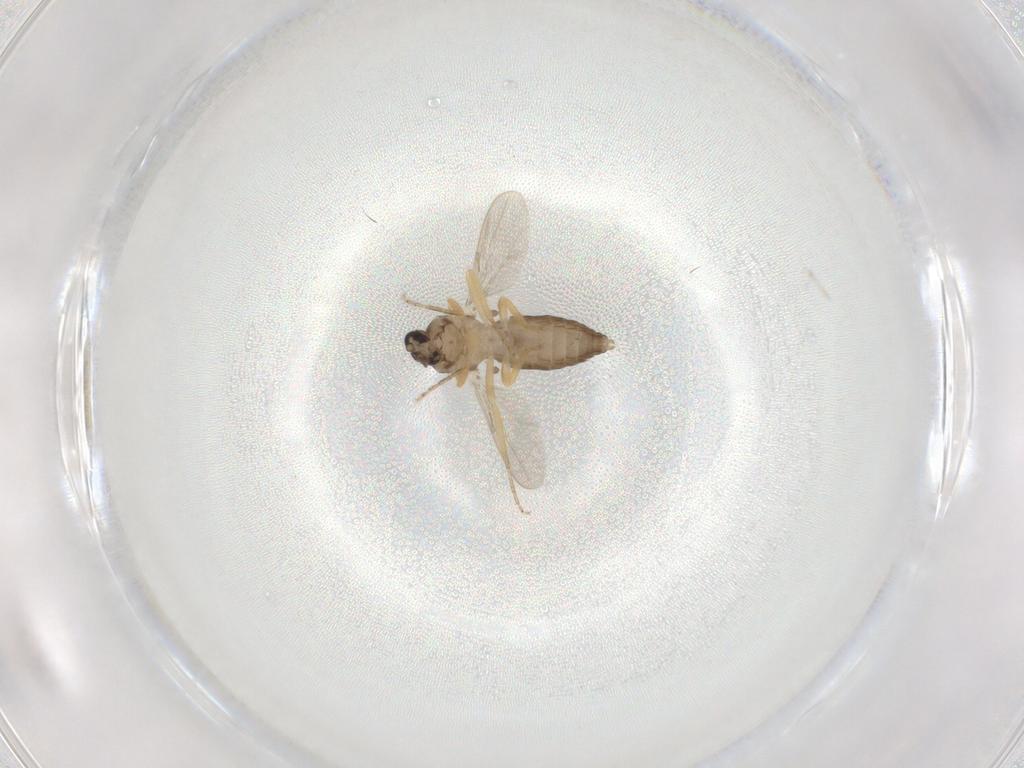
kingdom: Animalia
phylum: Arthropoda
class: Insecta
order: Diptera
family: Ceratopogonidae
